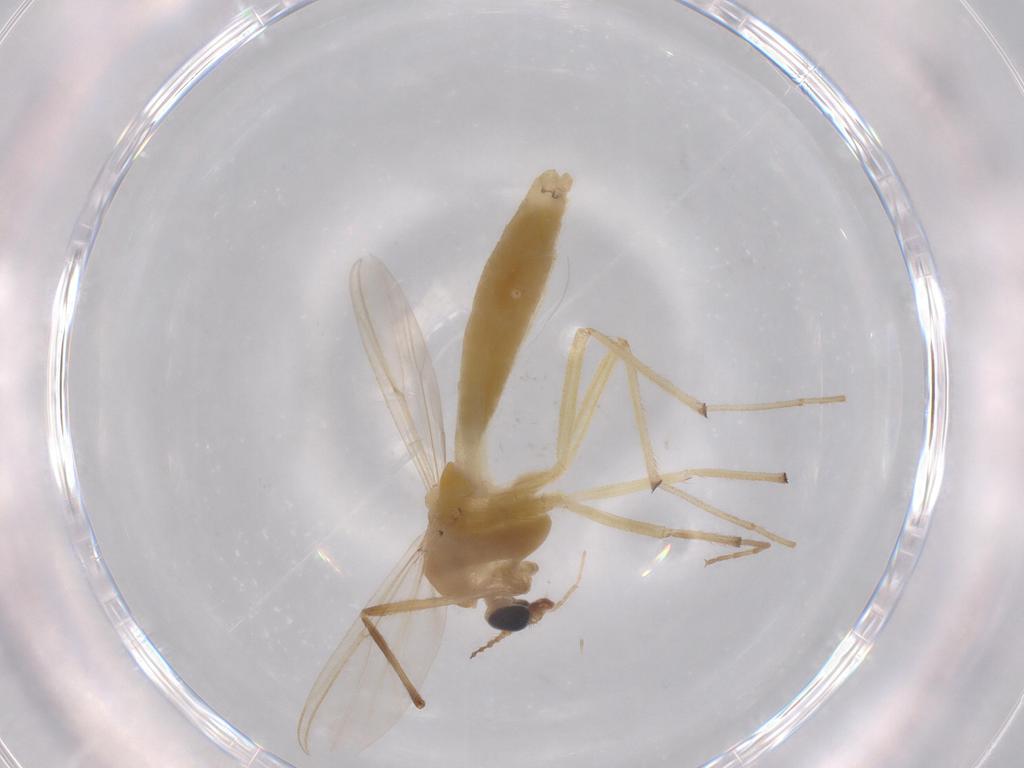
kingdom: Animalia
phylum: Arthropoda
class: Insecta
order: Diptera
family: Chironomidae
